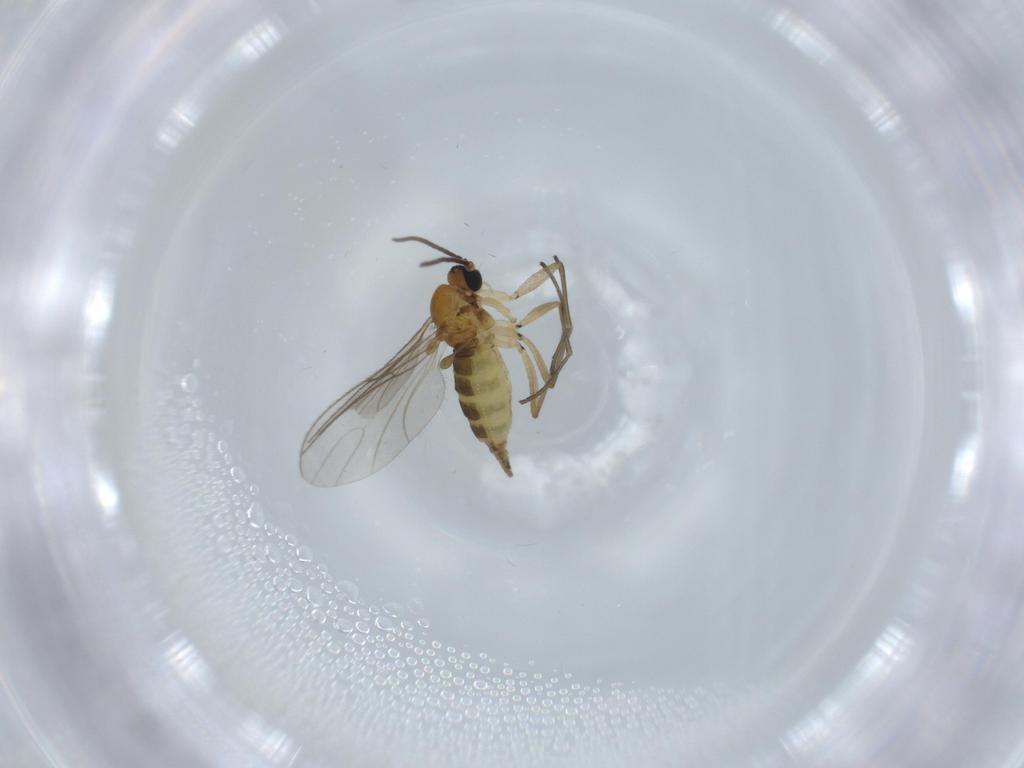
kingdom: Animalia
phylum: Arthropoda
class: Insecta
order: Diptera
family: Sciaridae
